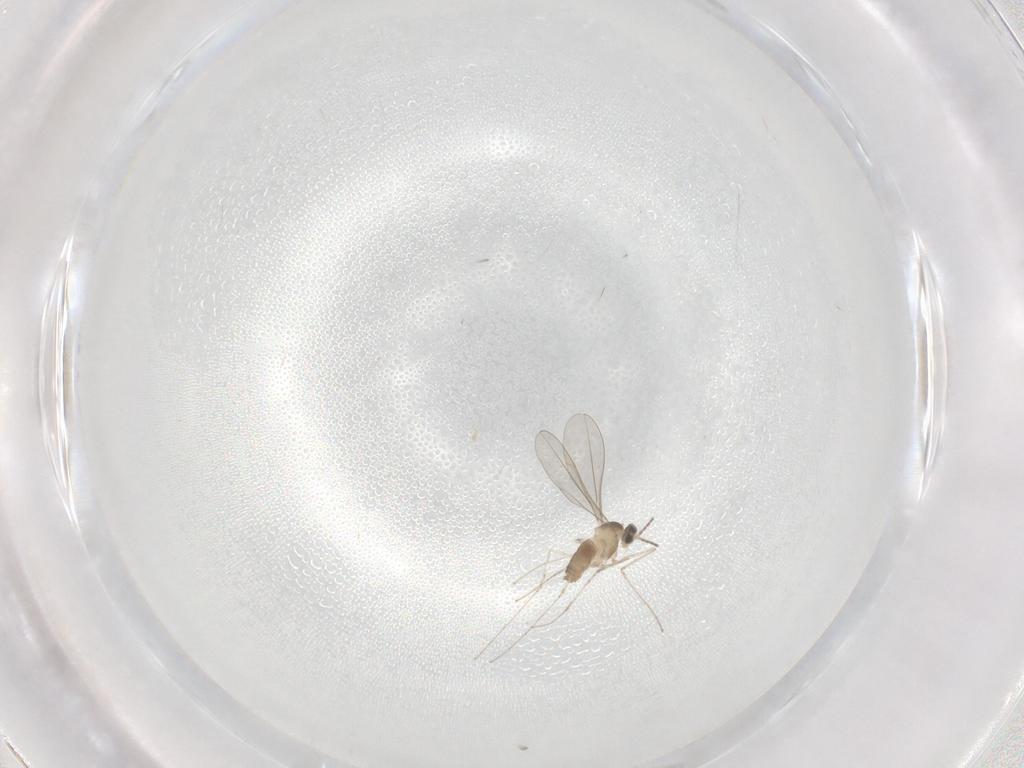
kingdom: Animalia
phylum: Arthropoda
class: Insecta
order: Diptera
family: Cecidomyiidae
